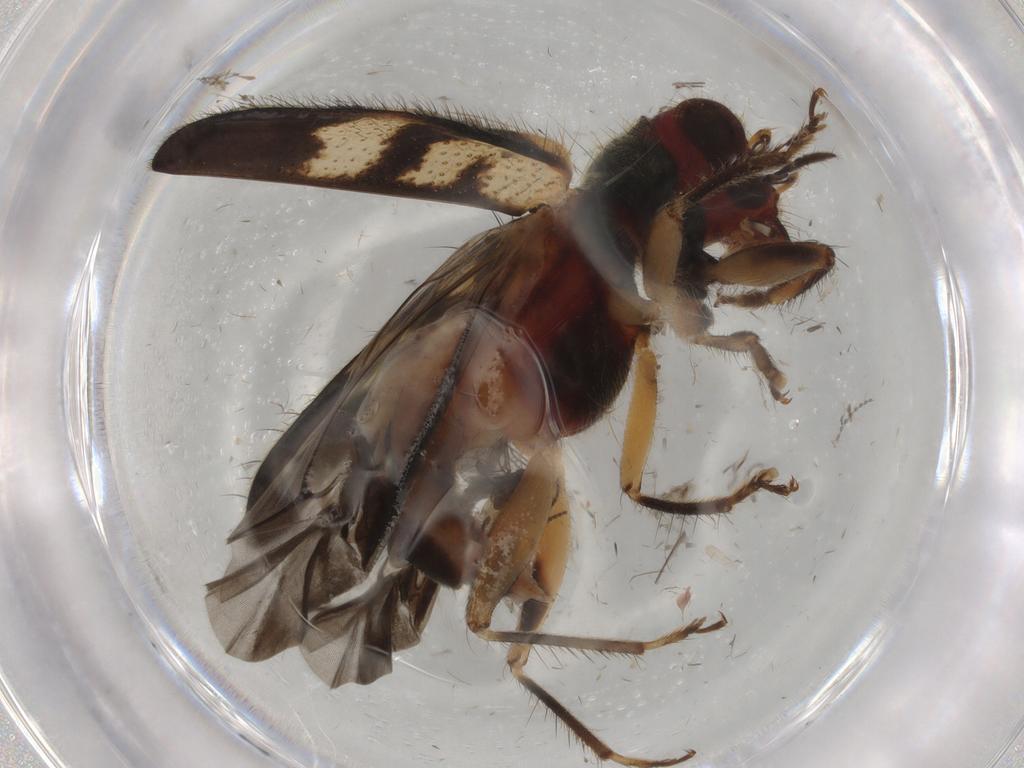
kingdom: Animalia
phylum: Arthropoda
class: Insecta
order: Coleoptera
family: Cleridae
